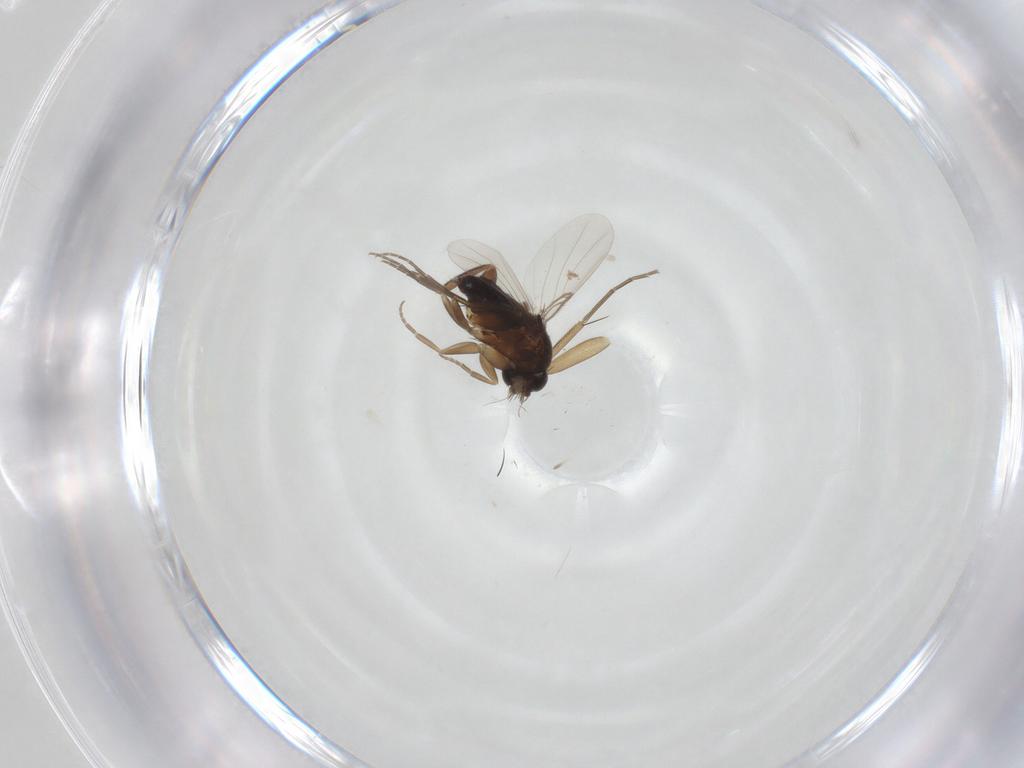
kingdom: Animalia
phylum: Arthropoda
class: Insecta
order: Diptera
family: Phoridae
